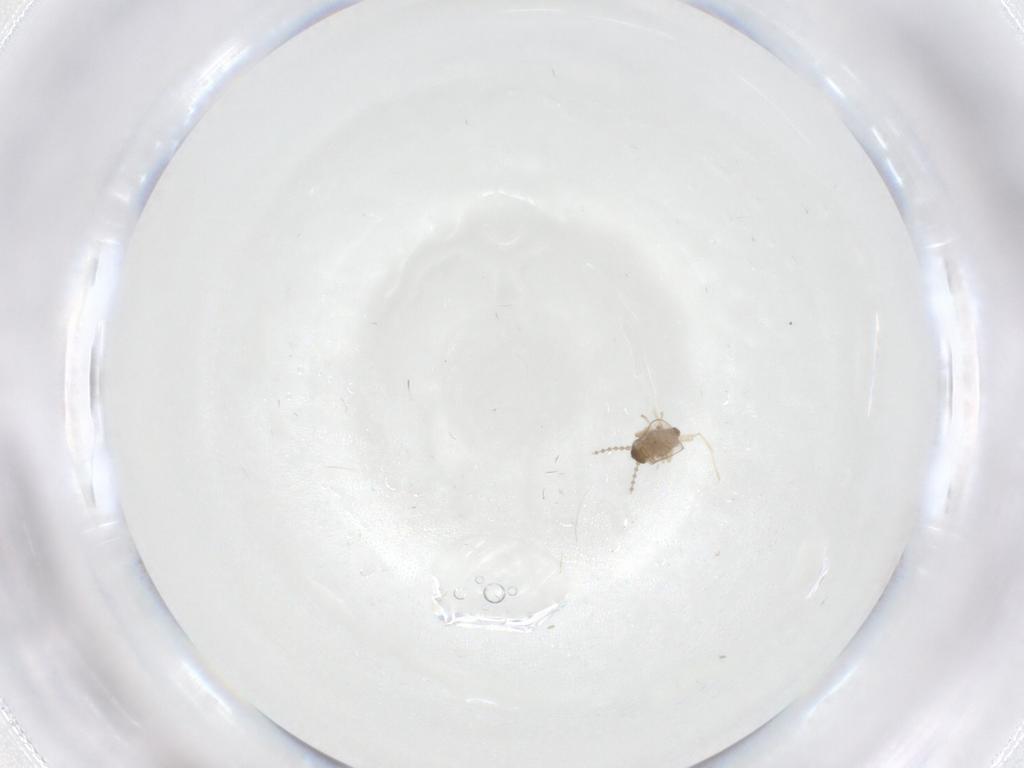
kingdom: Animalia
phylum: Arthropoda
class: Insecta
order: Diptera
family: Cecidomyiidae
